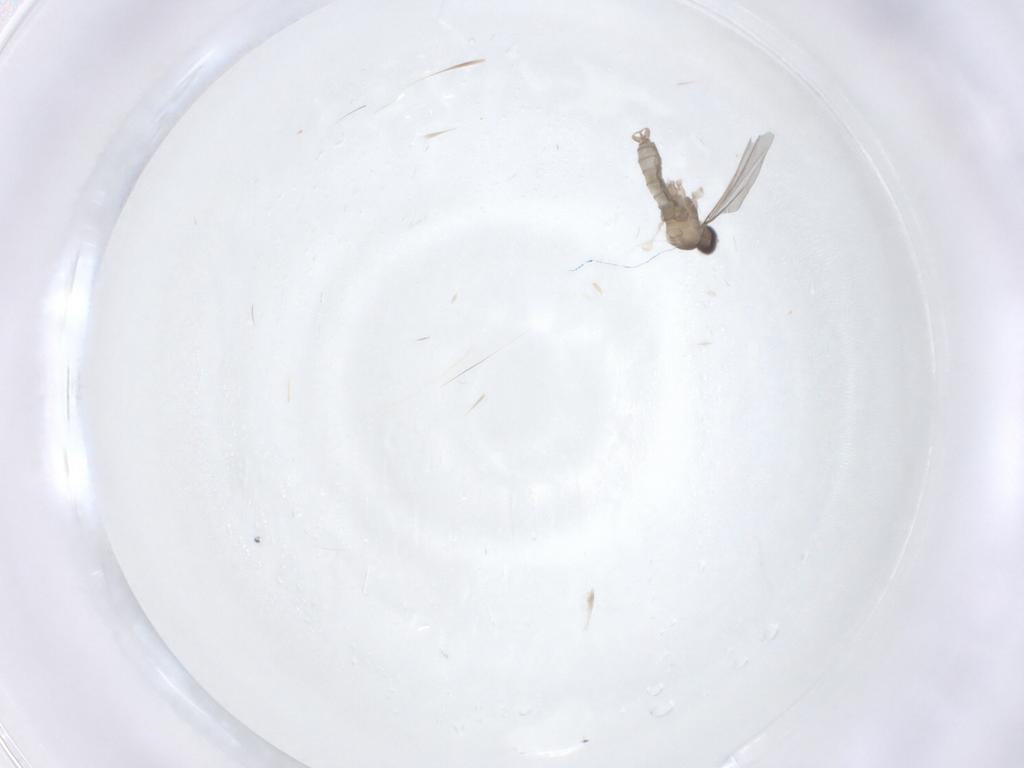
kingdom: Animalia
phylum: Arthropoda
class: Insecta
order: Diptera
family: Cecidomyiidae
